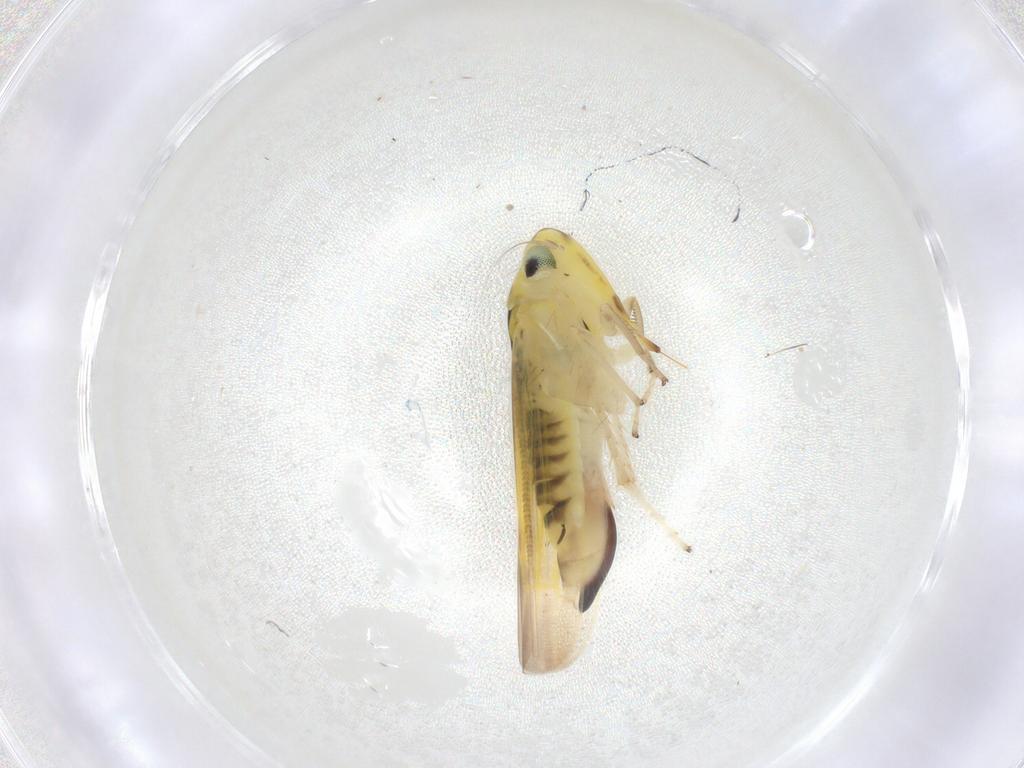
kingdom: Animalia
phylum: Arthropoda
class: Insecta
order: Hemiptera
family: Cicadellidae
